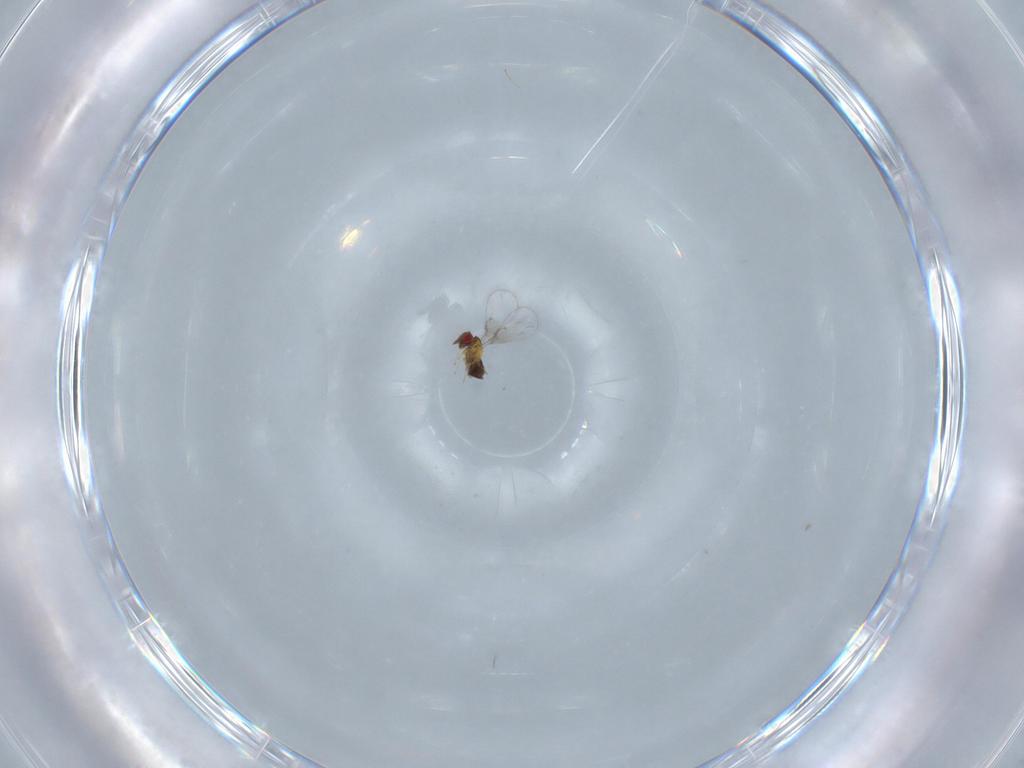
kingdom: Animalia
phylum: Arthropoda
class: Insecta
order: Hymenoptera
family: Trichogrammatidae
